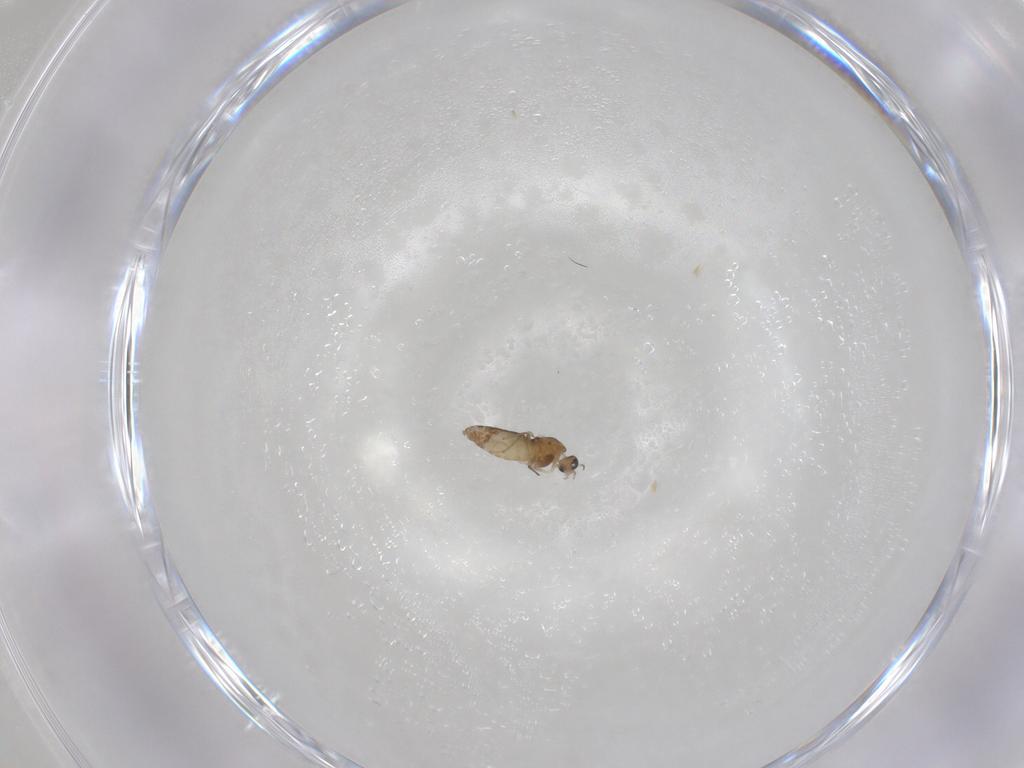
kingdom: Animalia
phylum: Arthropoda
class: Insecta
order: Diptera
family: Chironomidae
